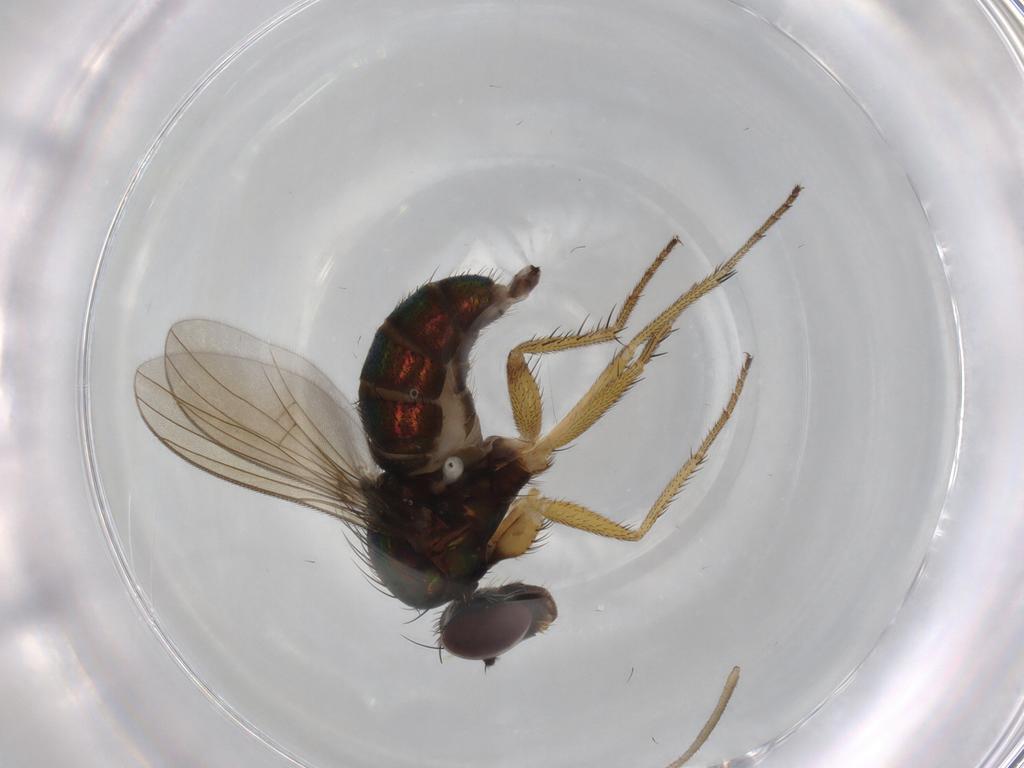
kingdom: Animalia
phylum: Arthropoda
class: Insecta
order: Diptera
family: Dolichopodidae
